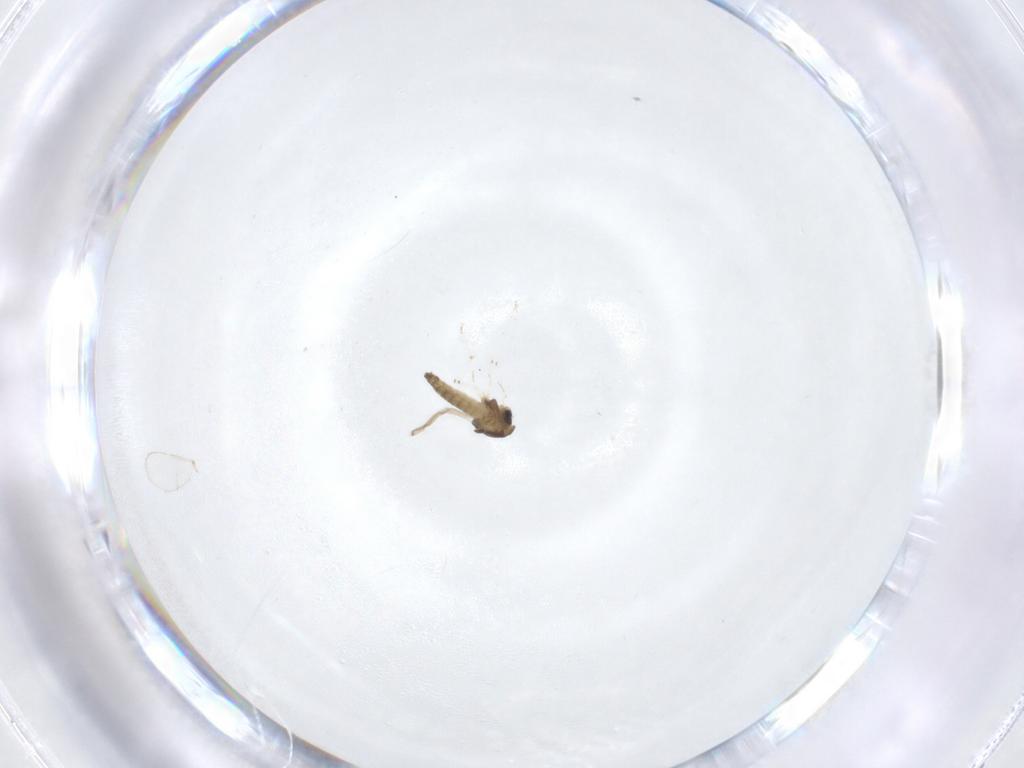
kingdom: Animalia
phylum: Arthropoda
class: Insecta
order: Diptera
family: Chironomidae
